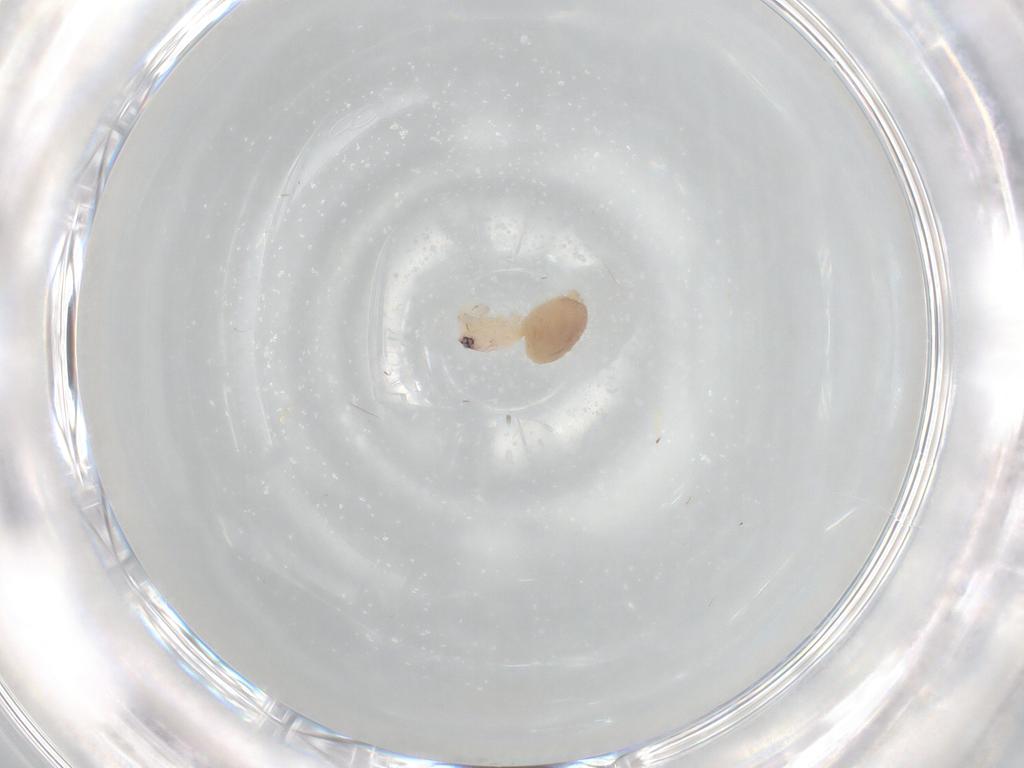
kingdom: Animalia
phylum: Arthropoda
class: Arachnida
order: Araneae
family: Oonopidae
